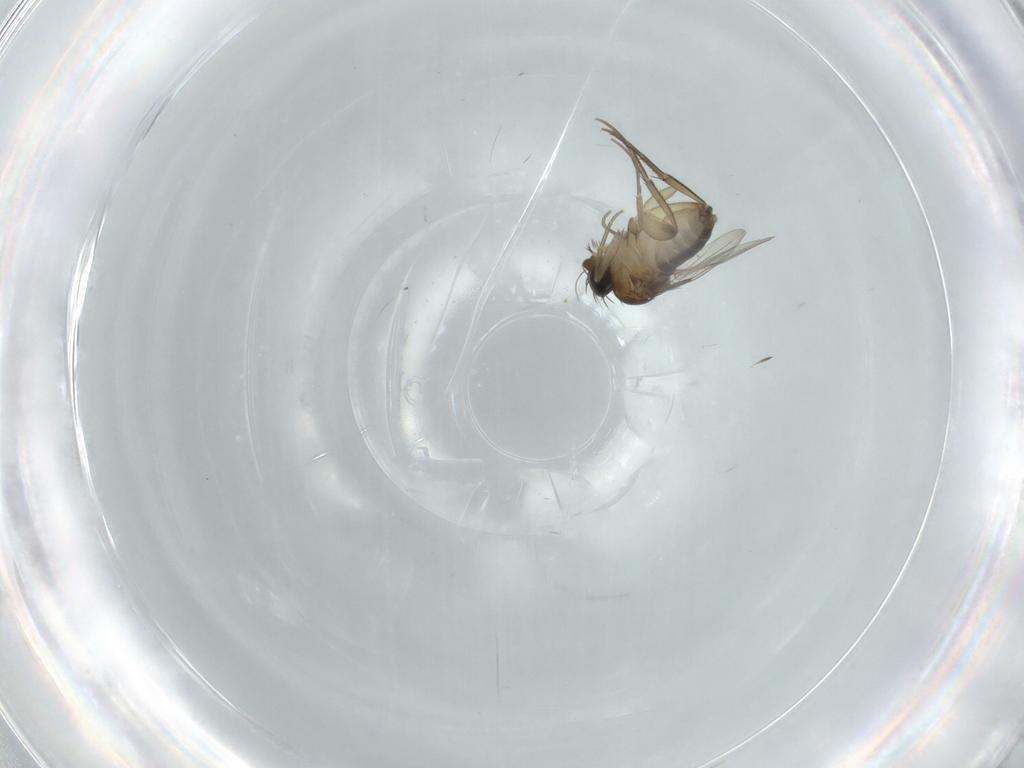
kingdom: Animalia
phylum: Arthropoda
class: Insecta
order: Diptera
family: Phoridae
